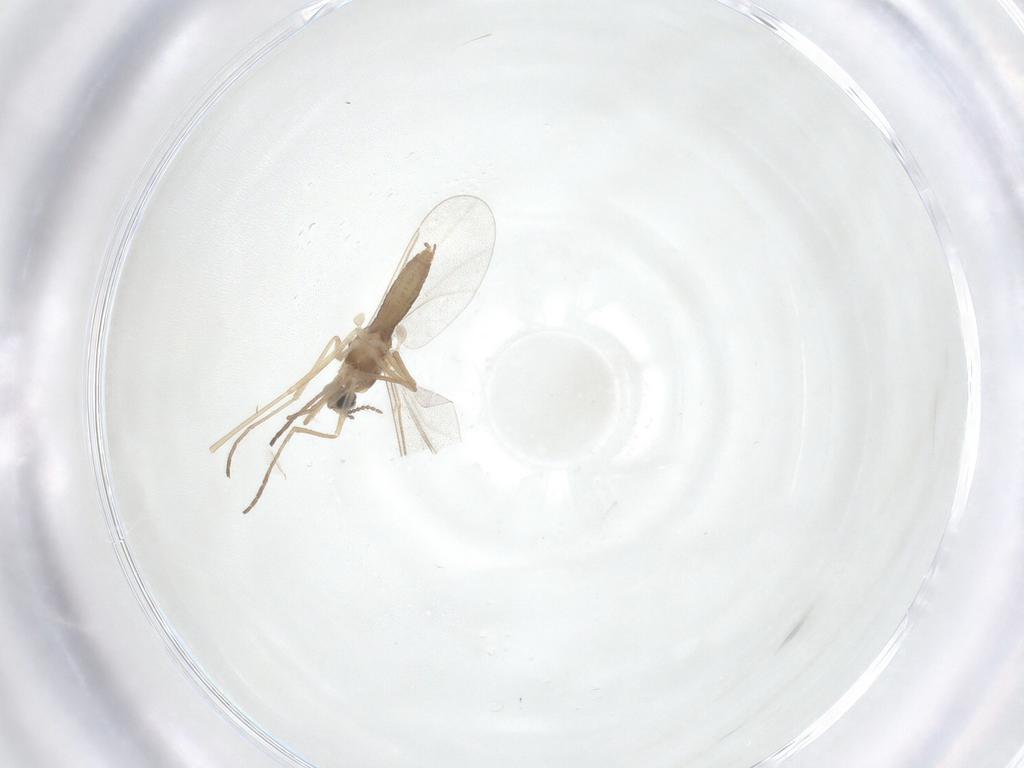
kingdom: Animalia
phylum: Arthropoda
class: Insecta
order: Diptera
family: Cecidomyiidae
